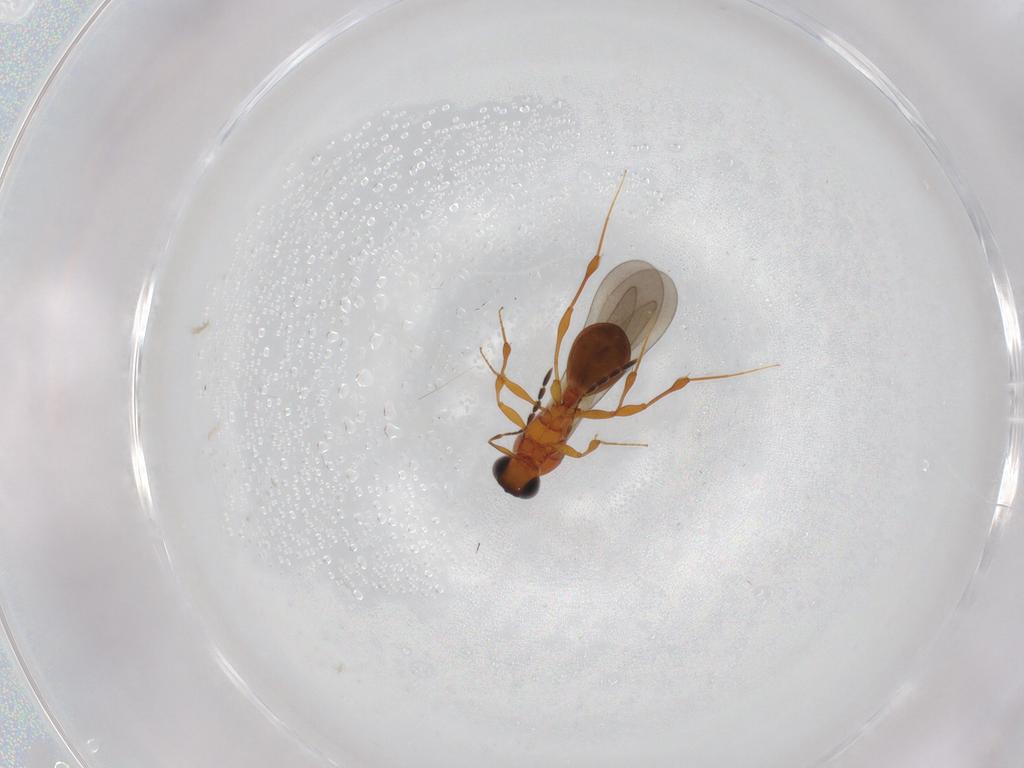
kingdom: Animalia
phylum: Arthropoda
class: Insecta
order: Hymenoptera
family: Platygastridae
